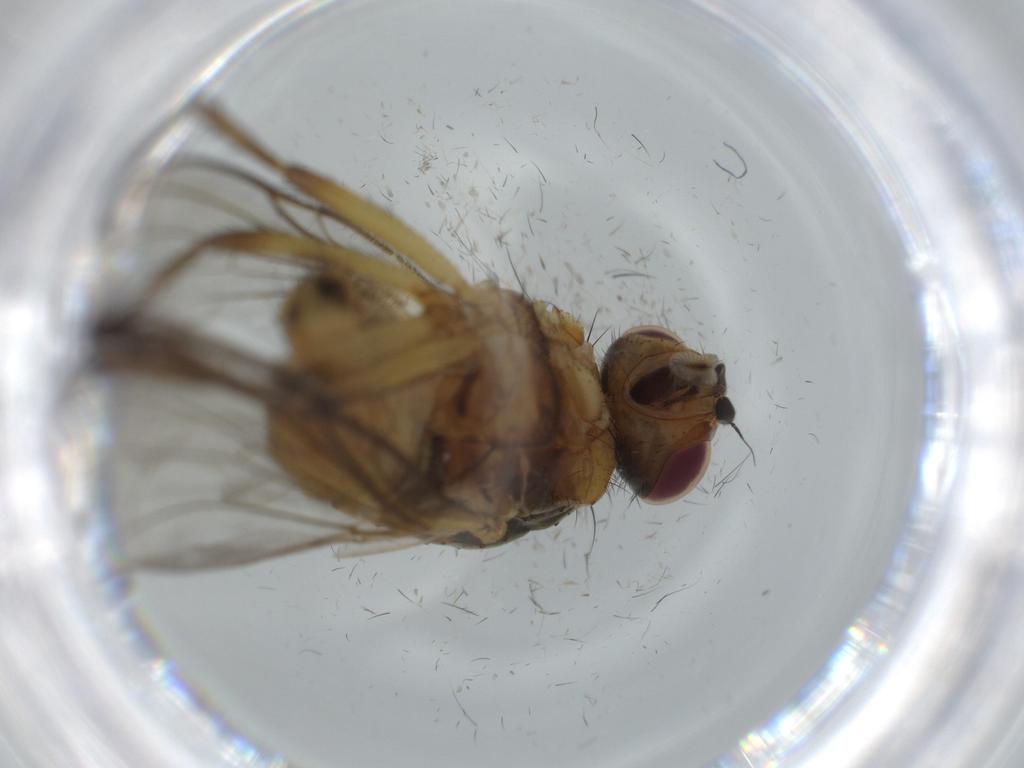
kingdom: Animalia
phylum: Arthropoda
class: Insecta
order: Diptera
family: Anthomyiidae
